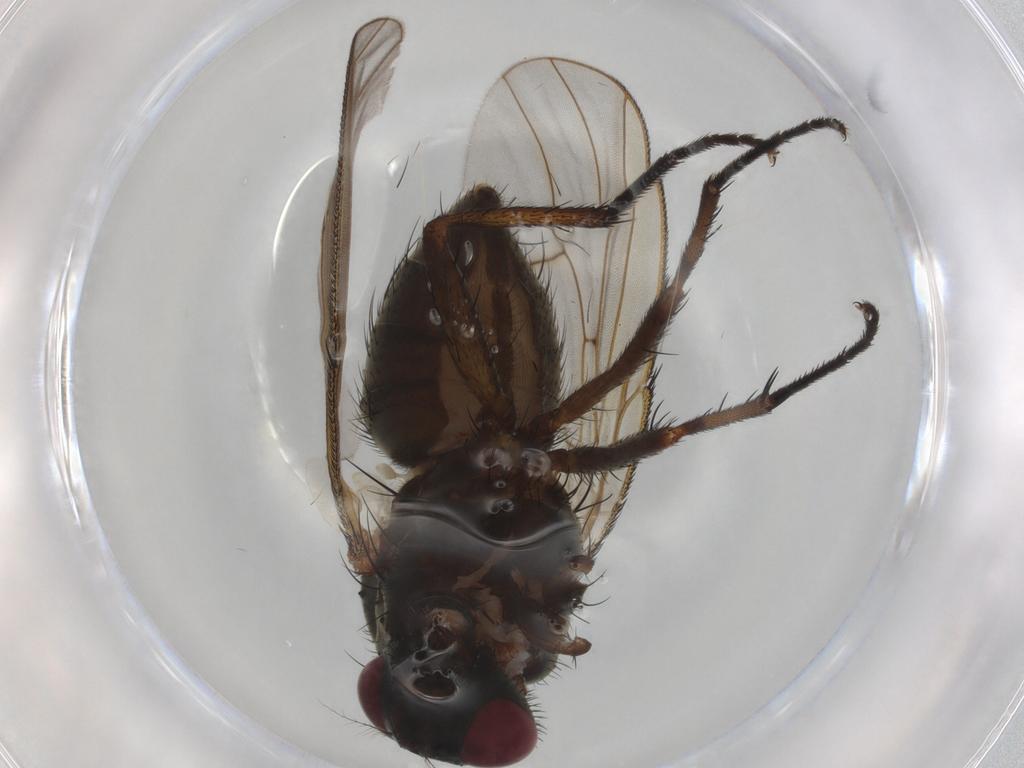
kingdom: Animalia
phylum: Arthropoda
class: Insecta
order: Diptera
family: Muscidae
